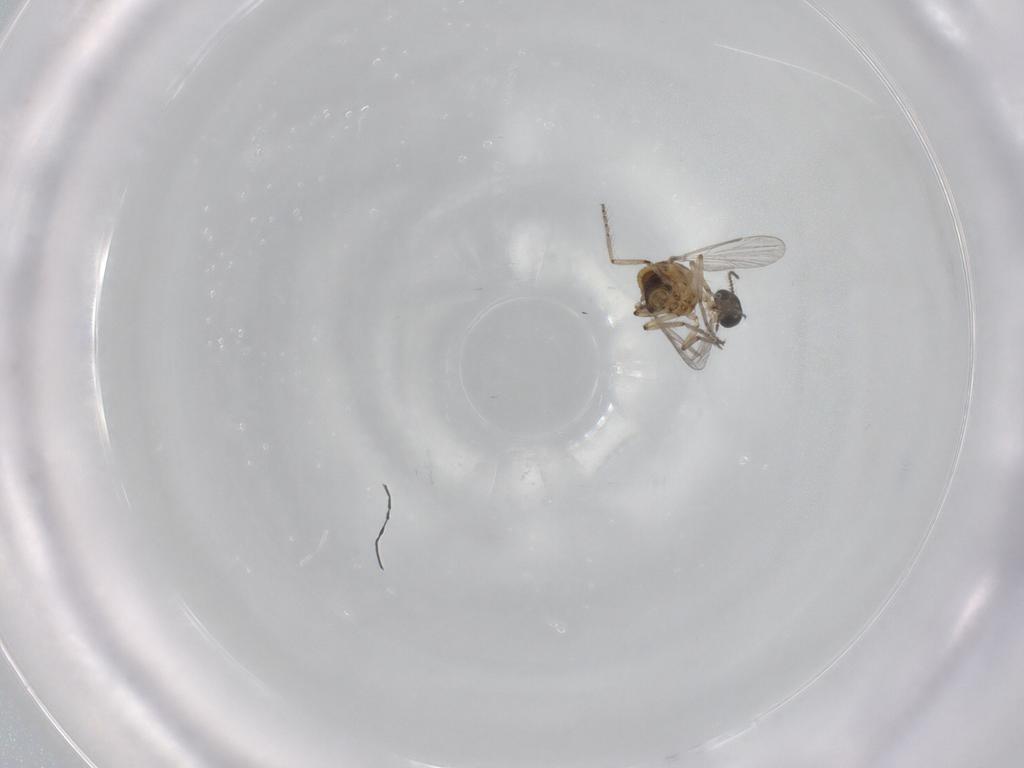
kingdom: Animalia
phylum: Arthropoda
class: Insecta
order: Diptera
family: Ceratopogonidae
